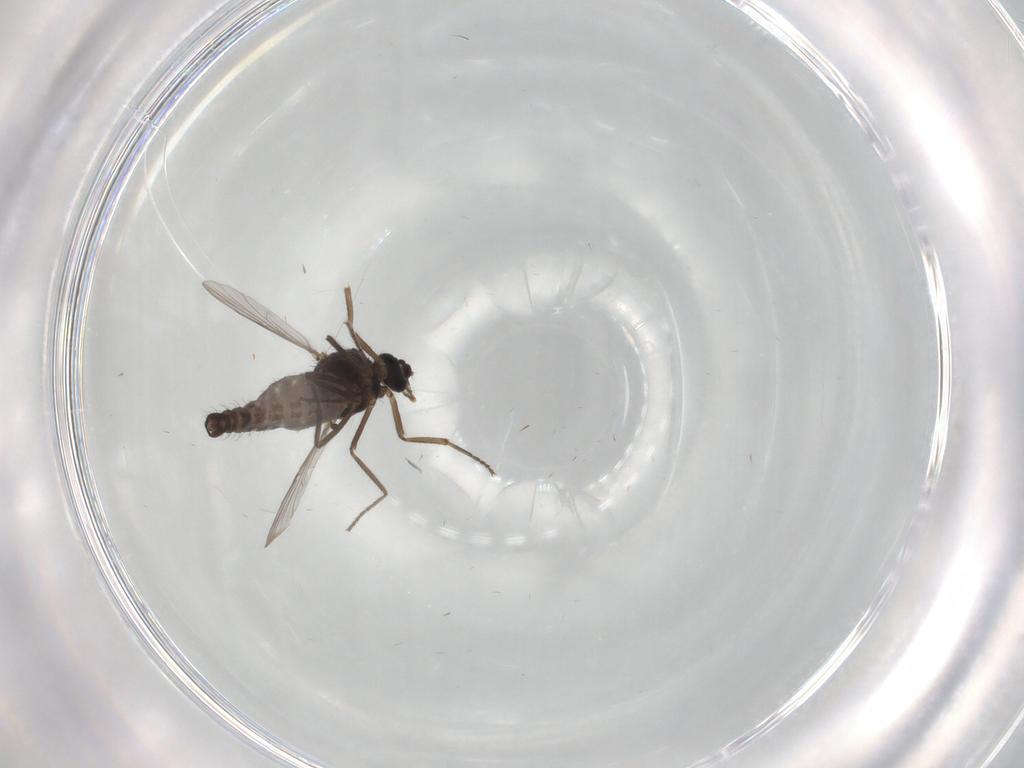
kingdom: Animalia
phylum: Arthropoda
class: Insecta
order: Diptera
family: Ceratopogonidae
